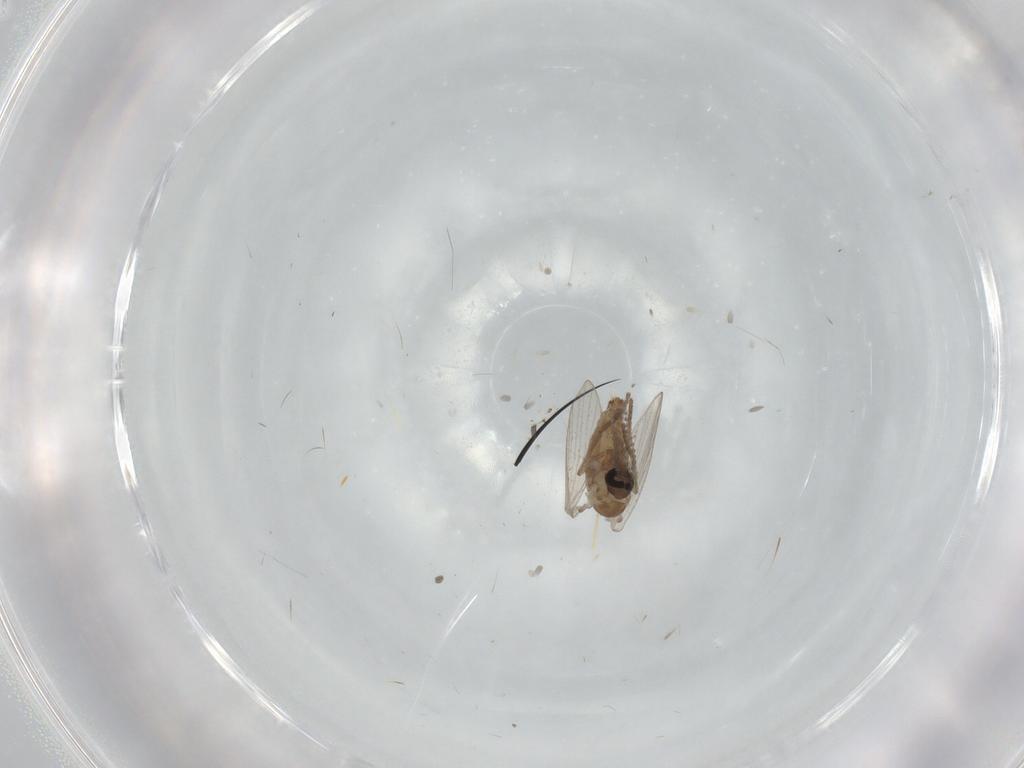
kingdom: Animalia
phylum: Arthropoda
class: Insecta
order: Diptera
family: Psychodidae
